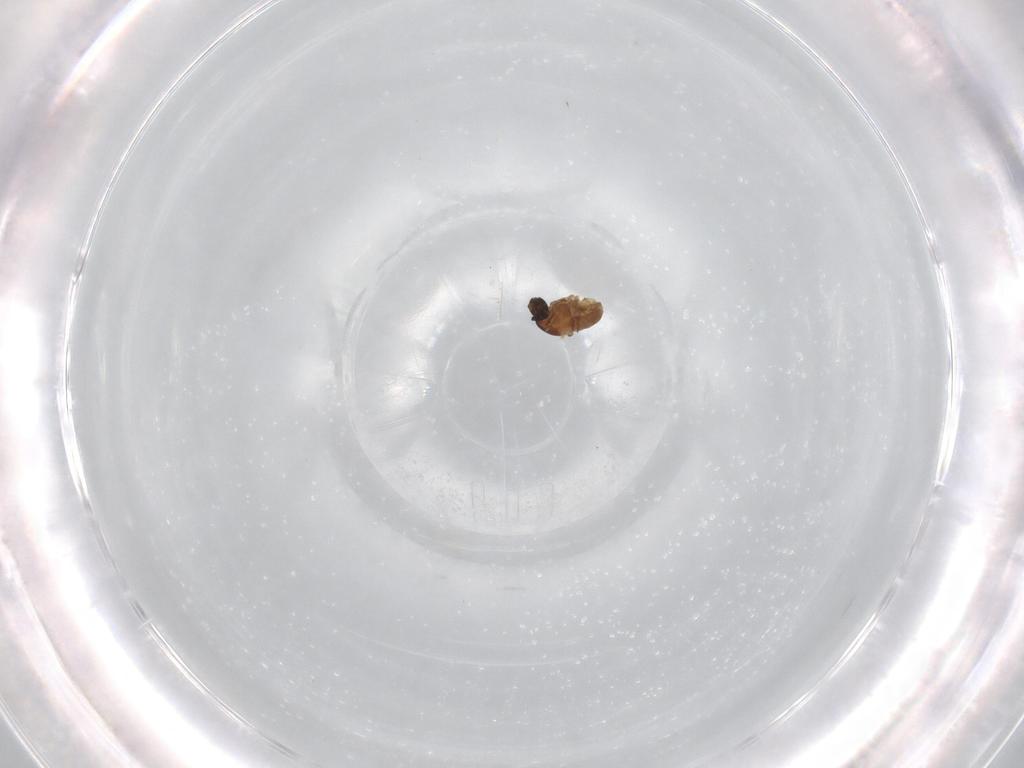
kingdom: Animalia
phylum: Arthropoda
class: Insecta
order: Diptera
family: Cecidomyiidae
